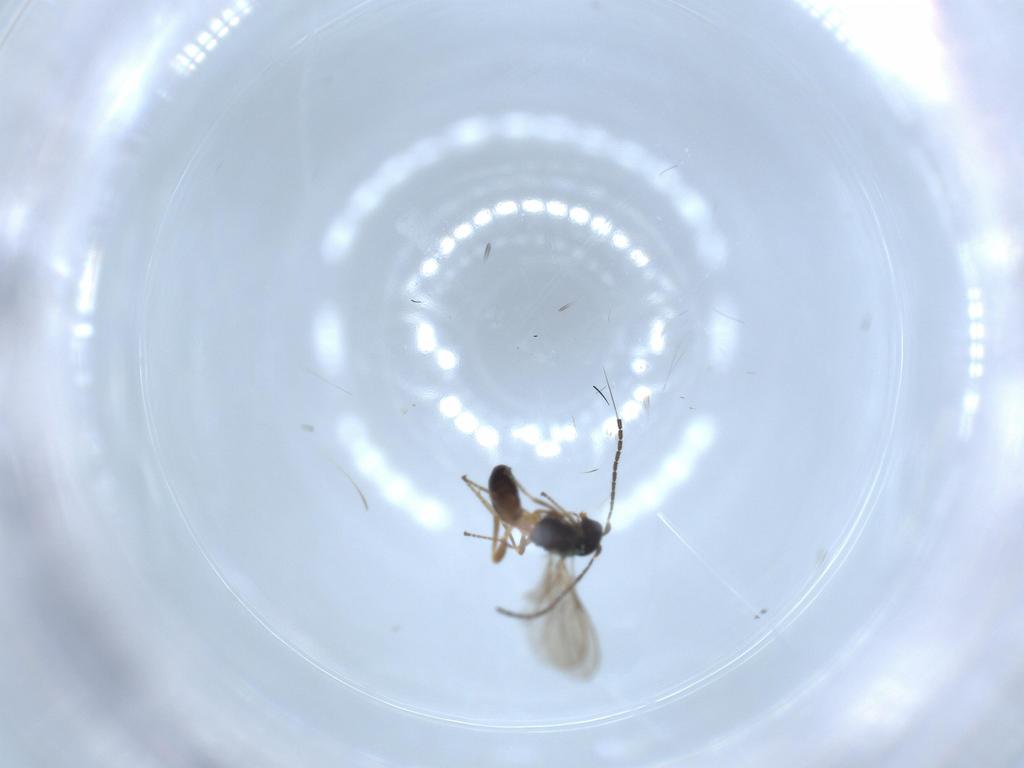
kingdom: Animalia
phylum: Arthropoda
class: Insecta
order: Hymenoptera
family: Braconidae
